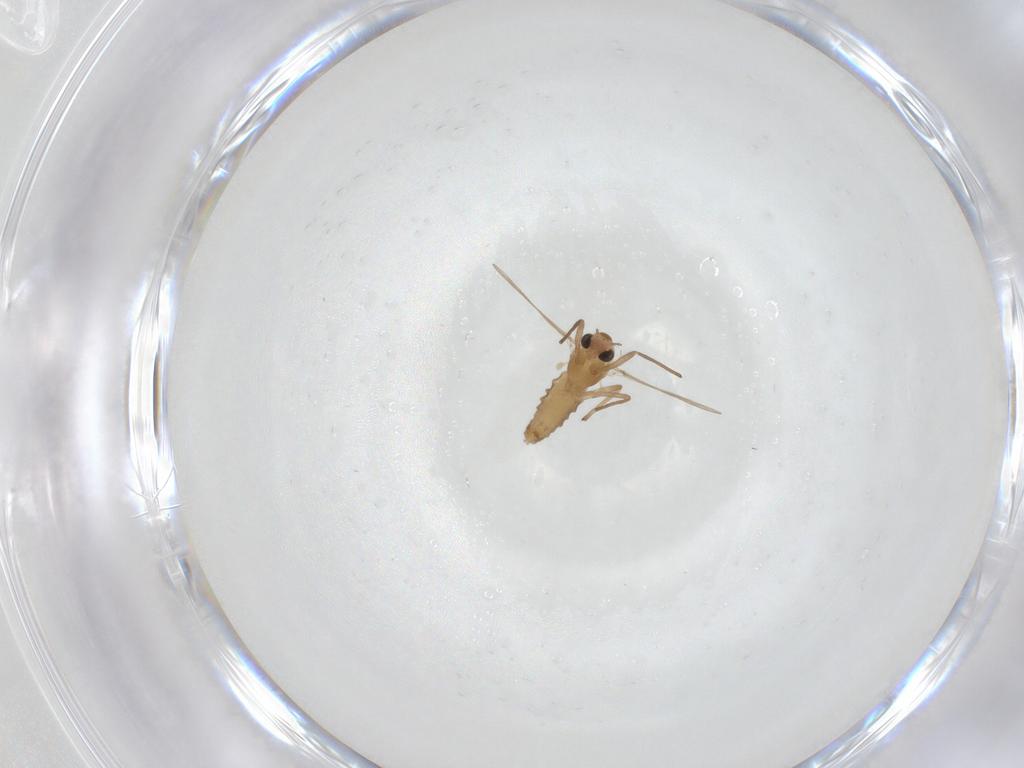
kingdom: Animalia
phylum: Arthropoda
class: Insecta
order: Diptera
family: Chironomidae
